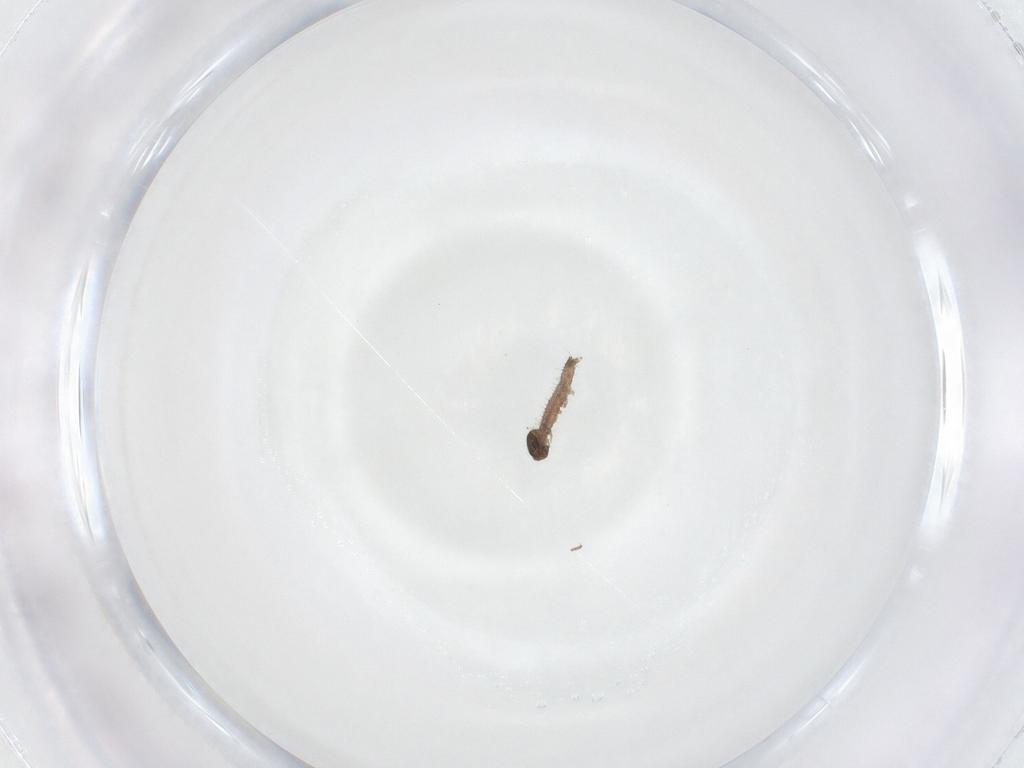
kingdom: Animalia
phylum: Arthropoda
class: Insecta
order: Lepidoptera
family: Erebidae
